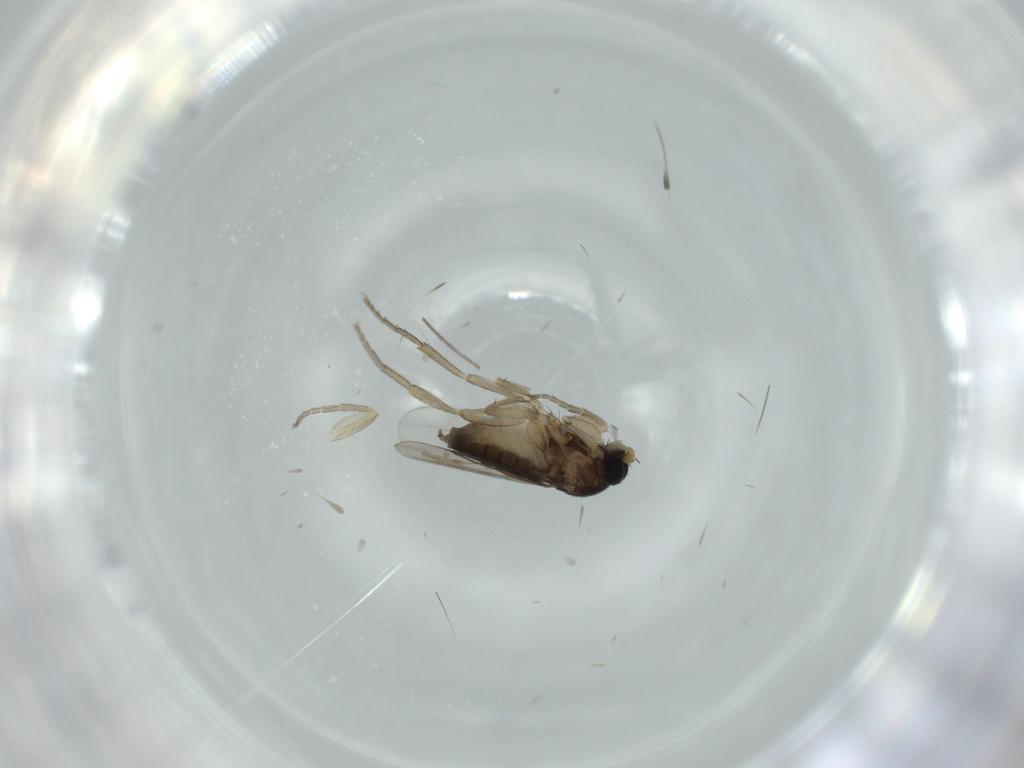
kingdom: Animalia
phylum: Arthropoda
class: Insecta
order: Diptera
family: Phoridae
